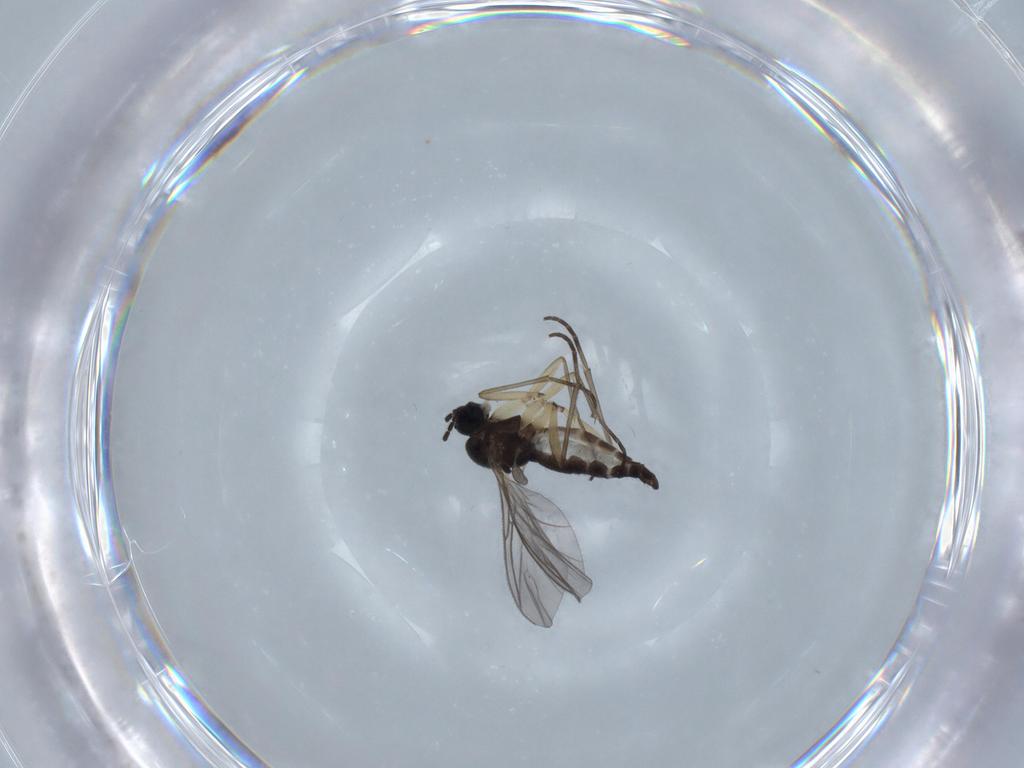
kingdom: Animalia
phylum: Arthropoda
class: Insecta
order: Diptera
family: Sciaridae
